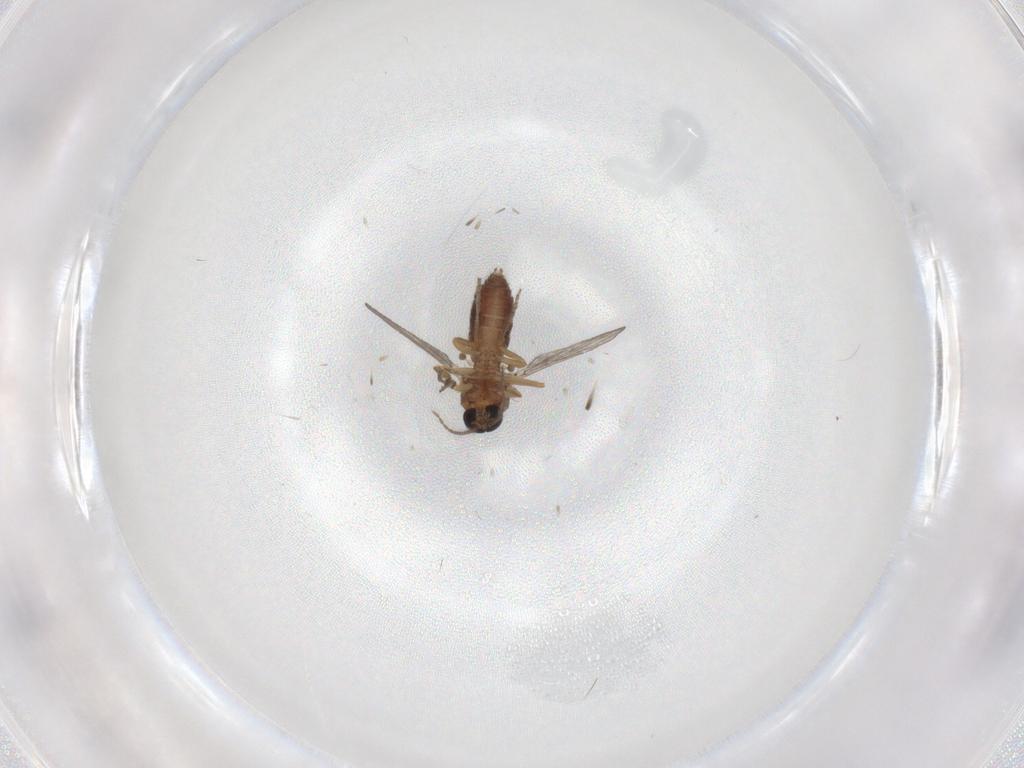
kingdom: Animalia
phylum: Arthropoda
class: Insecta
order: Diptera
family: Ceratopogonidae
